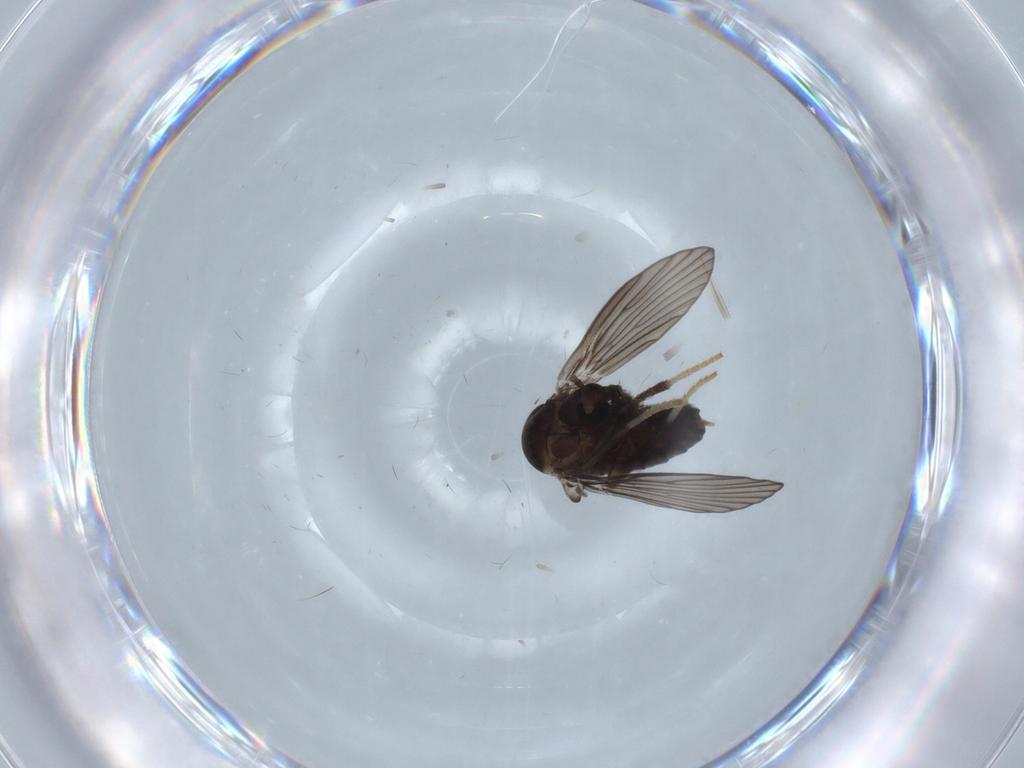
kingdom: Animalia
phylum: Arthropoda
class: Insecta
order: Diptera
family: Psychodidae
